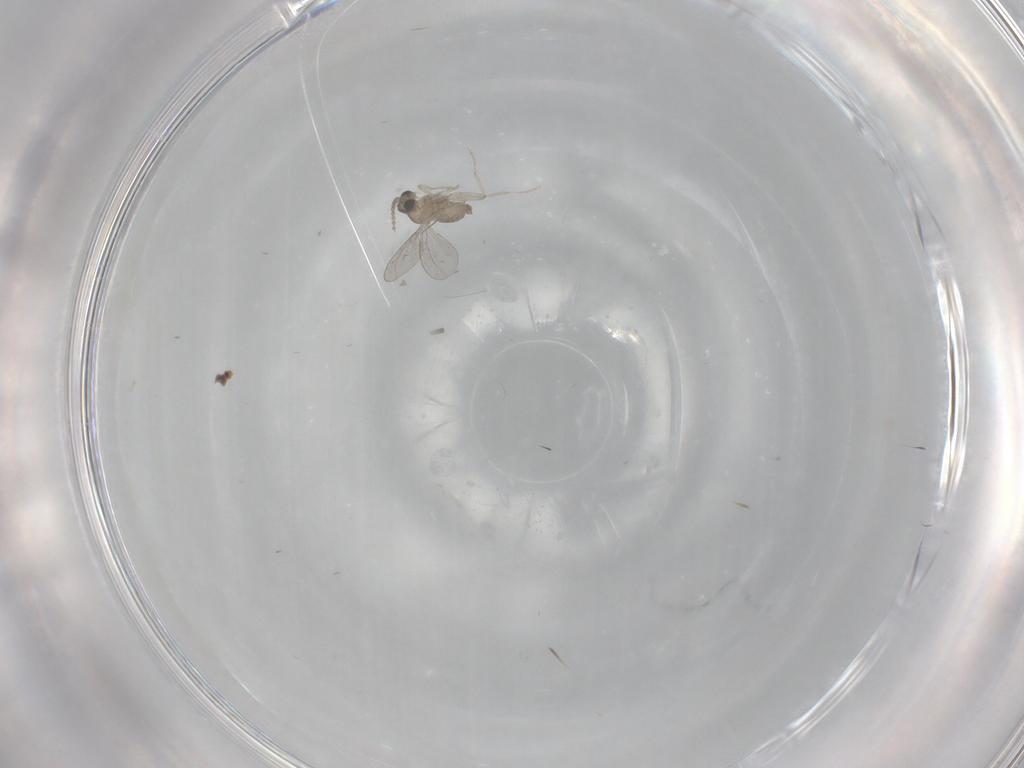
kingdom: Animalia
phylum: Arthropoda
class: Insecta
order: Diptera
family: Cecidomyiidae
